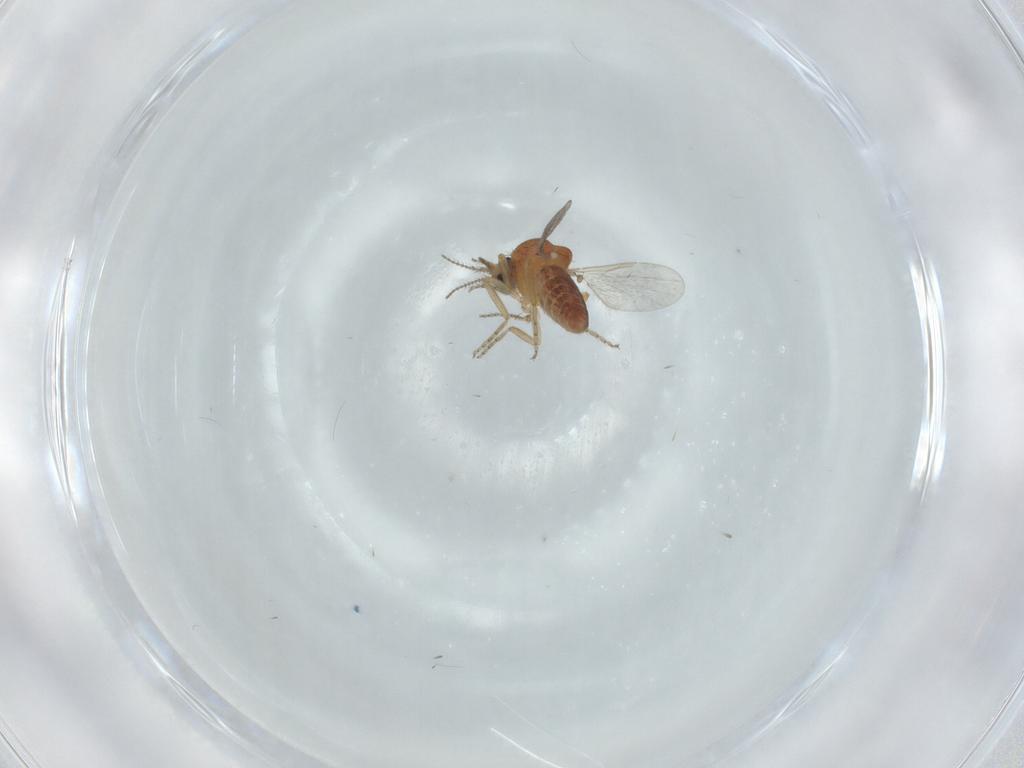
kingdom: Animalia
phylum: Arthropoda
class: Insecta
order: Diptera
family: Ceratopogonidae
